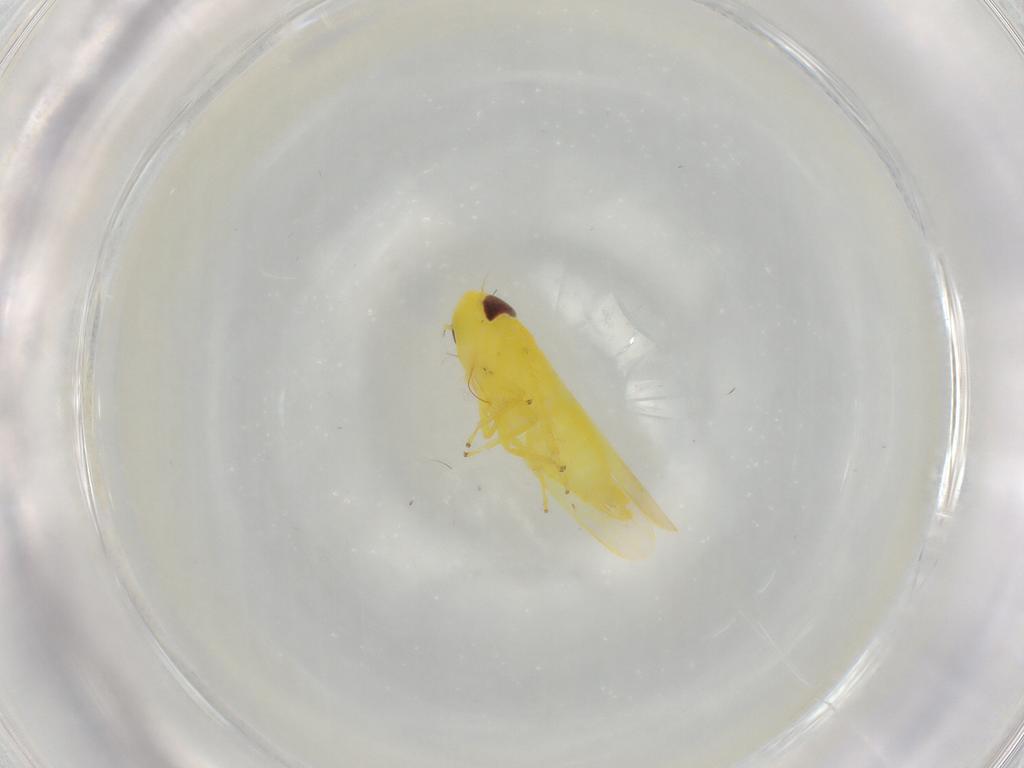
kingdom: Animalia
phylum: Arthropoda
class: Insecta
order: Hemiptera
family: Cicadellidae
